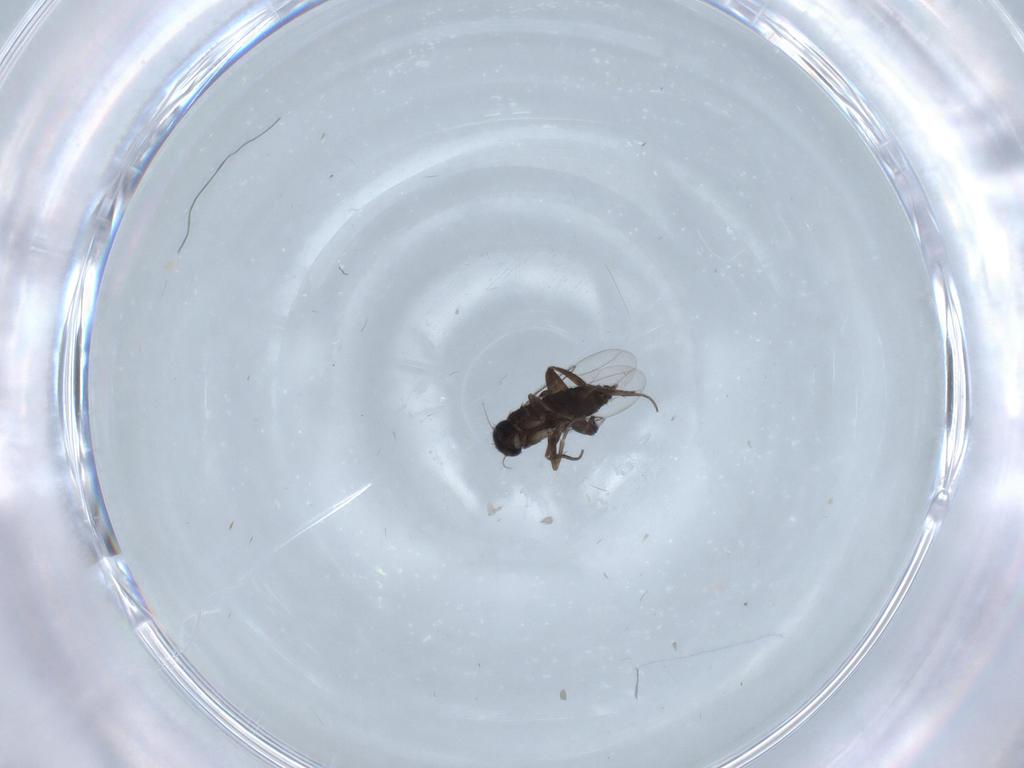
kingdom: Animalia
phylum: Arthropoda
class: Insecta
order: Diptera
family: Phoridae
